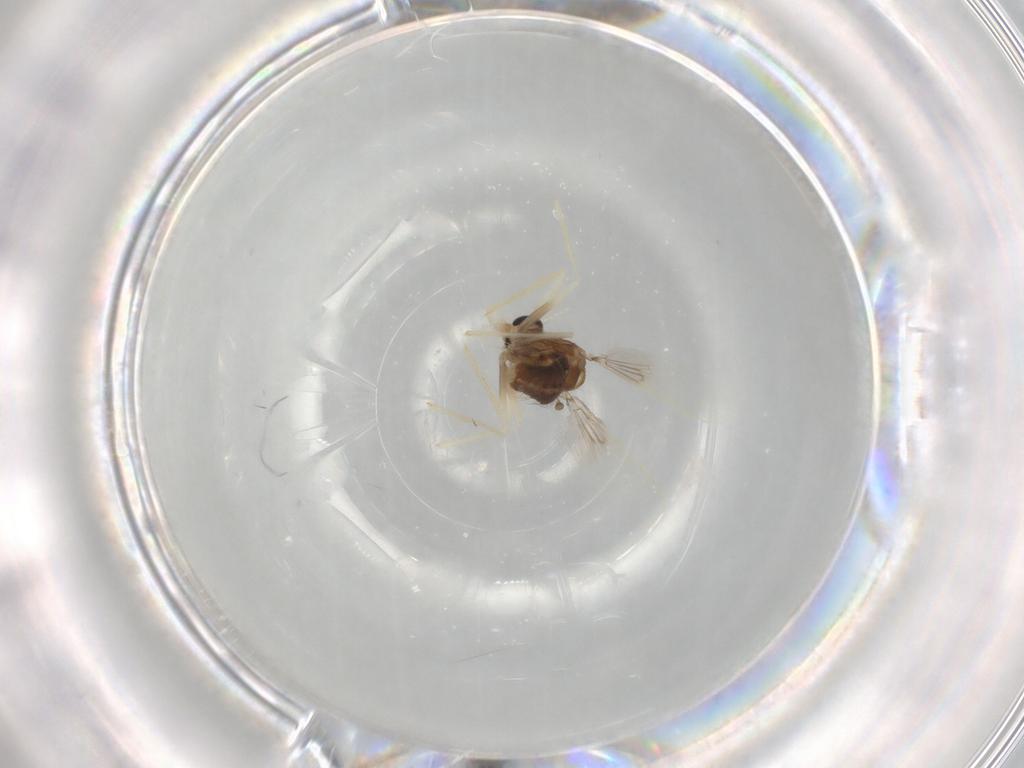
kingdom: Animalia
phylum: Arthropoda
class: Insecta
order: Diptera
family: Chironomidae
